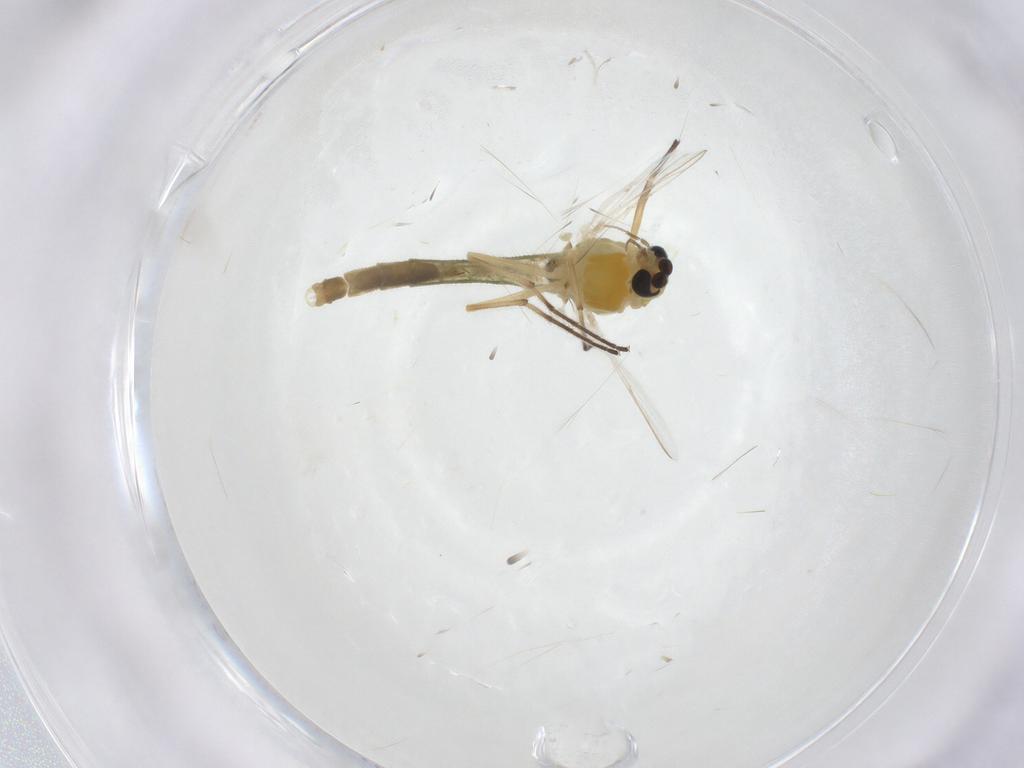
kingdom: Animalia
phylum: Arthropoda
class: Insecta
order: Diptera
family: Chironomidae
